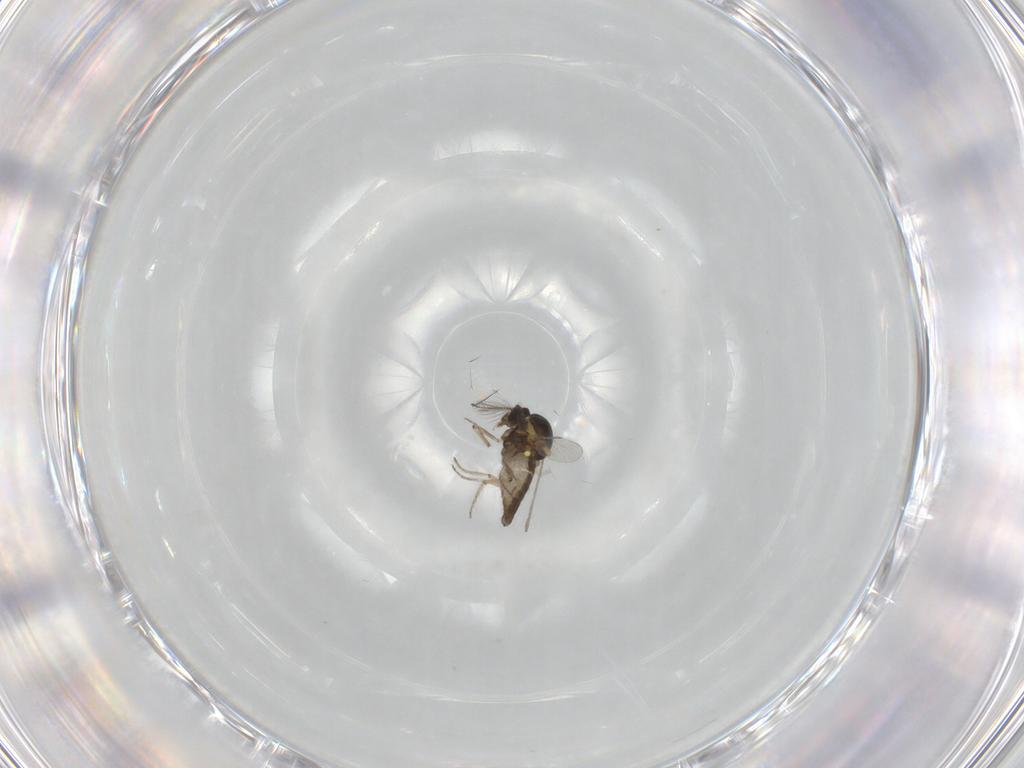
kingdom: Animalia
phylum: Arthropoda
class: Insecta
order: Diptera
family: Ceratopogonidae
